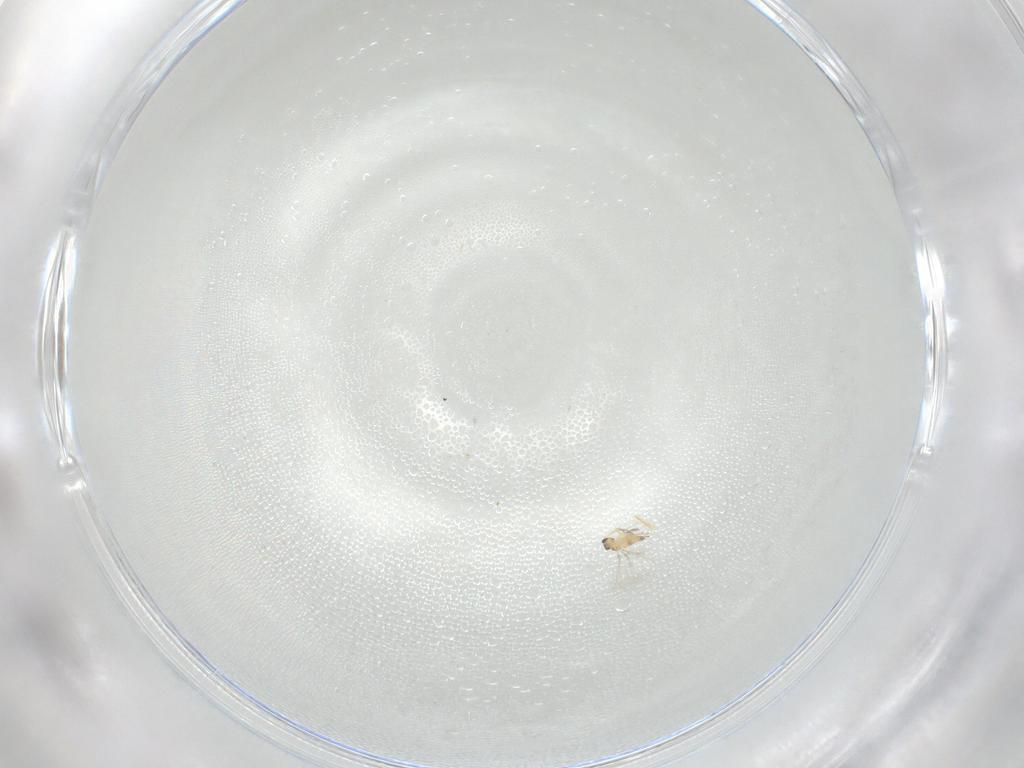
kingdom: Animalia
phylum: Arthropoda
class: Insecta
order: Hymenoptera
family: Mymaridae
